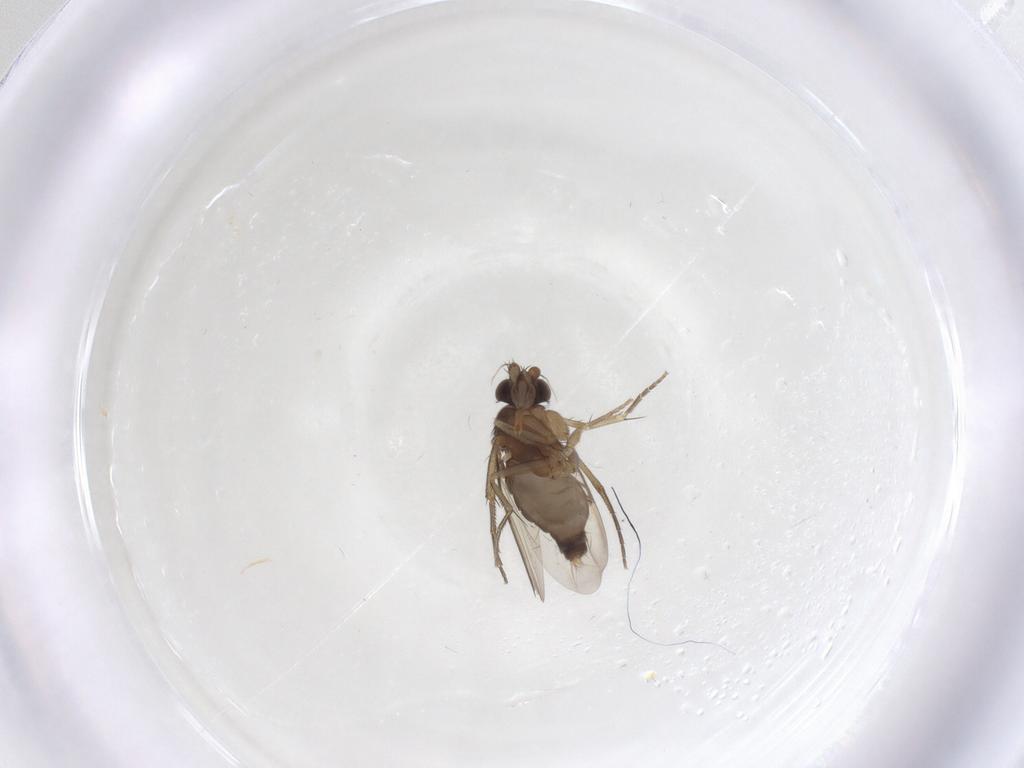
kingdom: Animalia
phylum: Arthropoda
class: Insecta
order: Diptera
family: Phoridae
